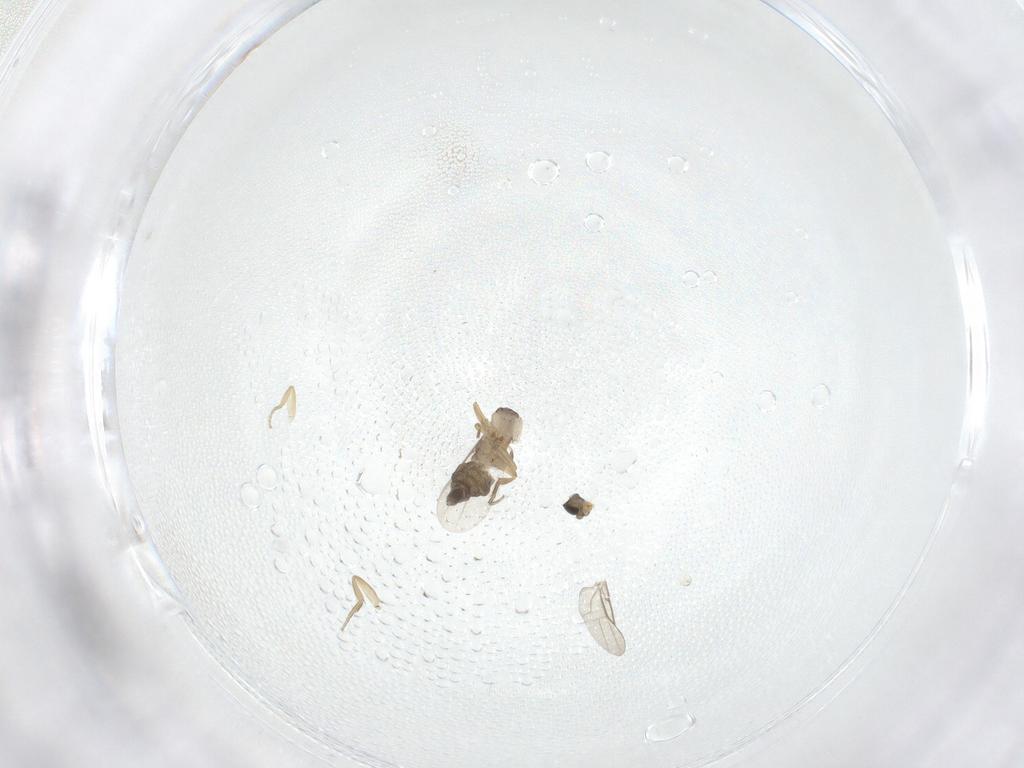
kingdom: Animalia
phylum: Arthropoda
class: Insecta
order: Diptera
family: Phoridae
